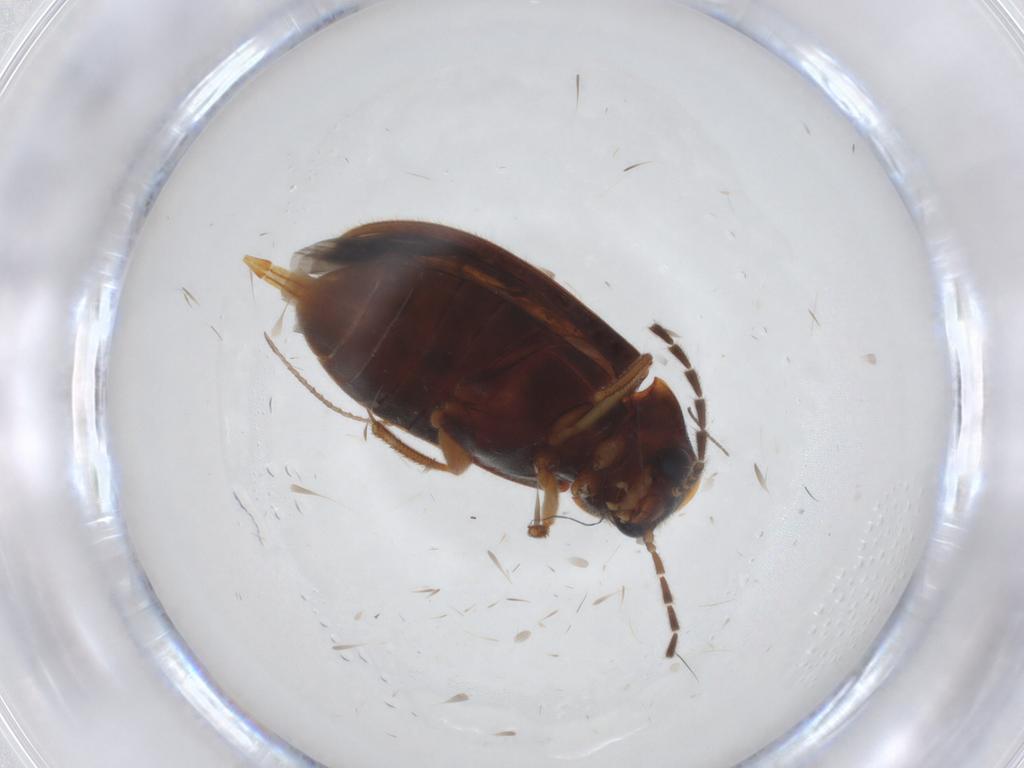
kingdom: Animalia
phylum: Arthropoda
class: Insecta
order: Coleoptera
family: Ptilodactylidae
